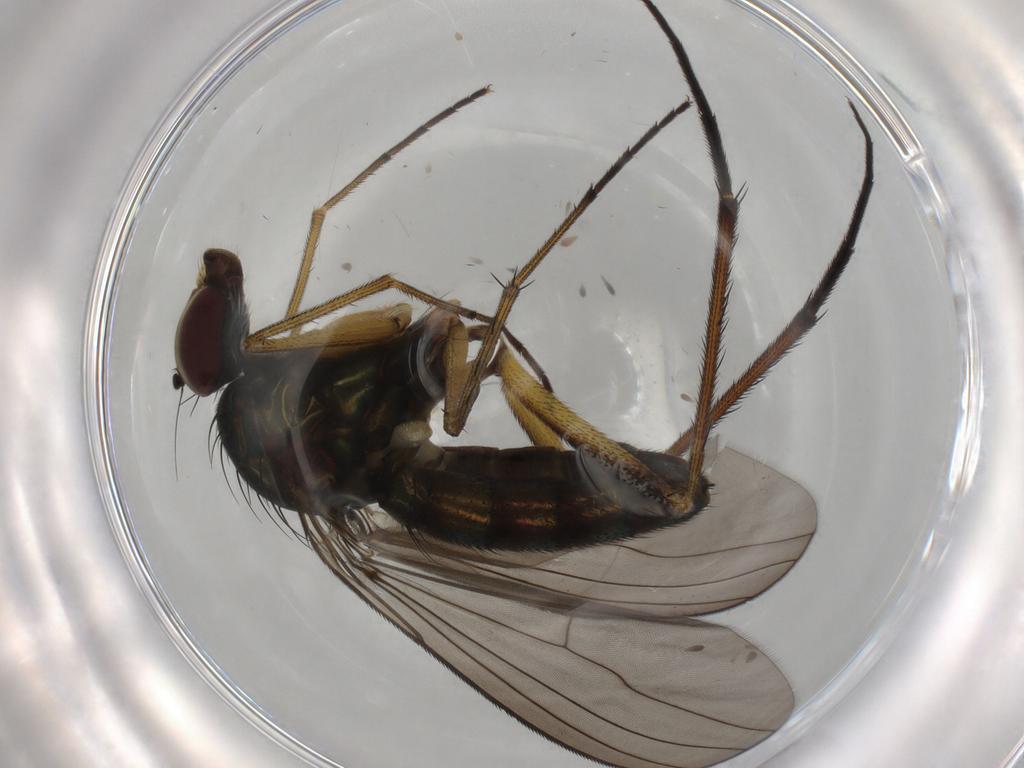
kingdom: Animalia
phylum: Arthropoda
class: Insecta
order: Diptera
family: Dolichopodidae
